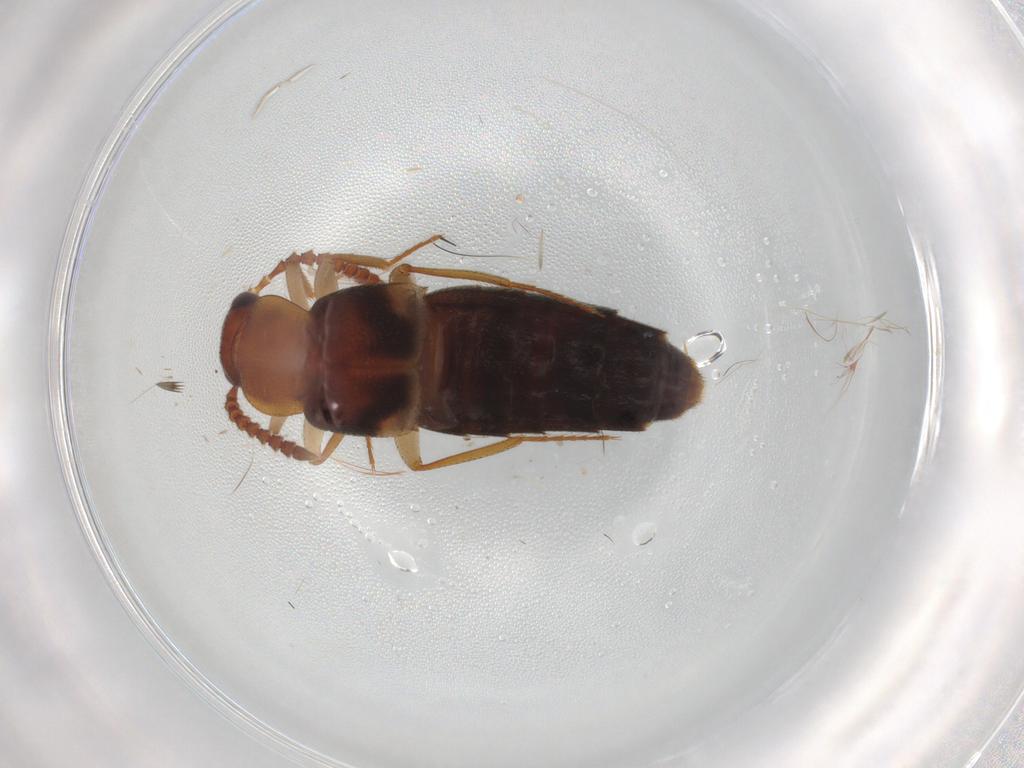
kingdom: Animalia
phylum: Arthropoda
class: Insecta
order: Coleoptera
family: Staphylinidae
